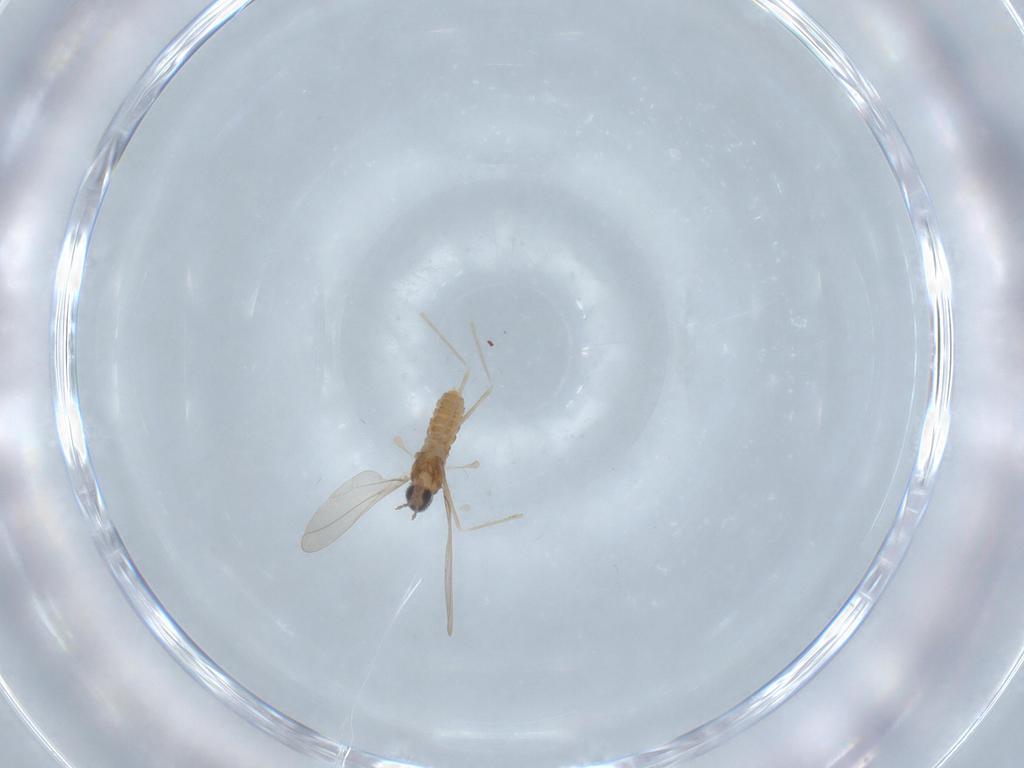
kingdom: Animalia
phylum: Arthropoda
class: Insecta
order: Diptera
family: Cecidomyiidae
